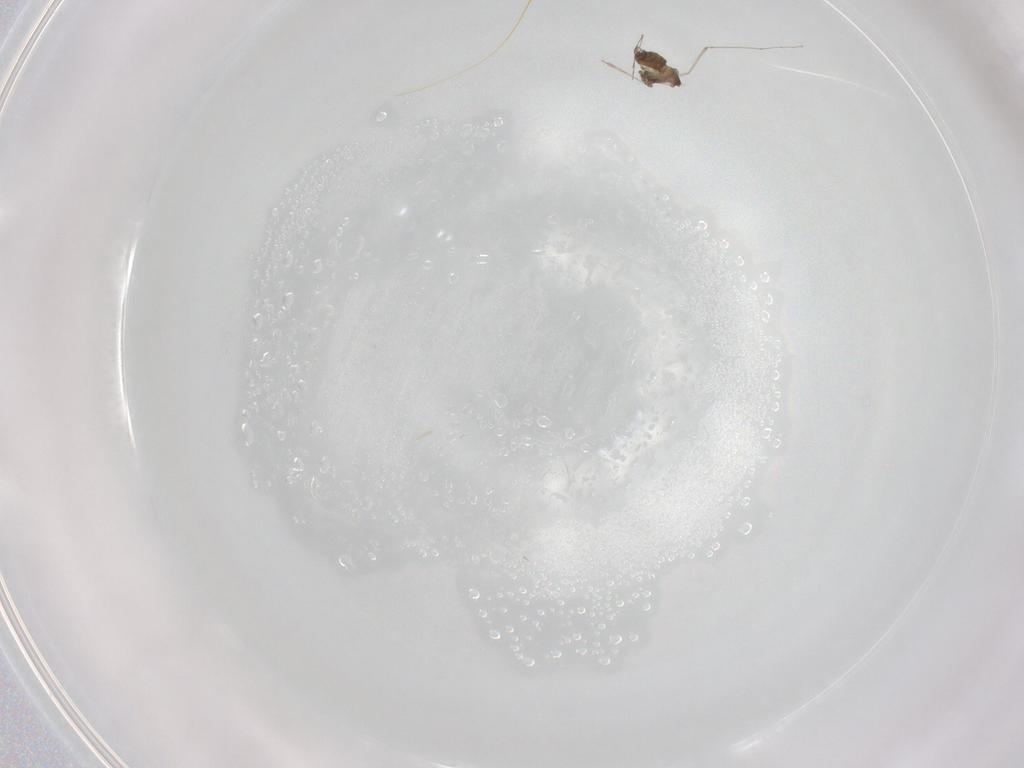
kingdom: Animalia
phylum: Arthropoda
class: Insecta
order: Diptera
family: Cecidomyiidae
